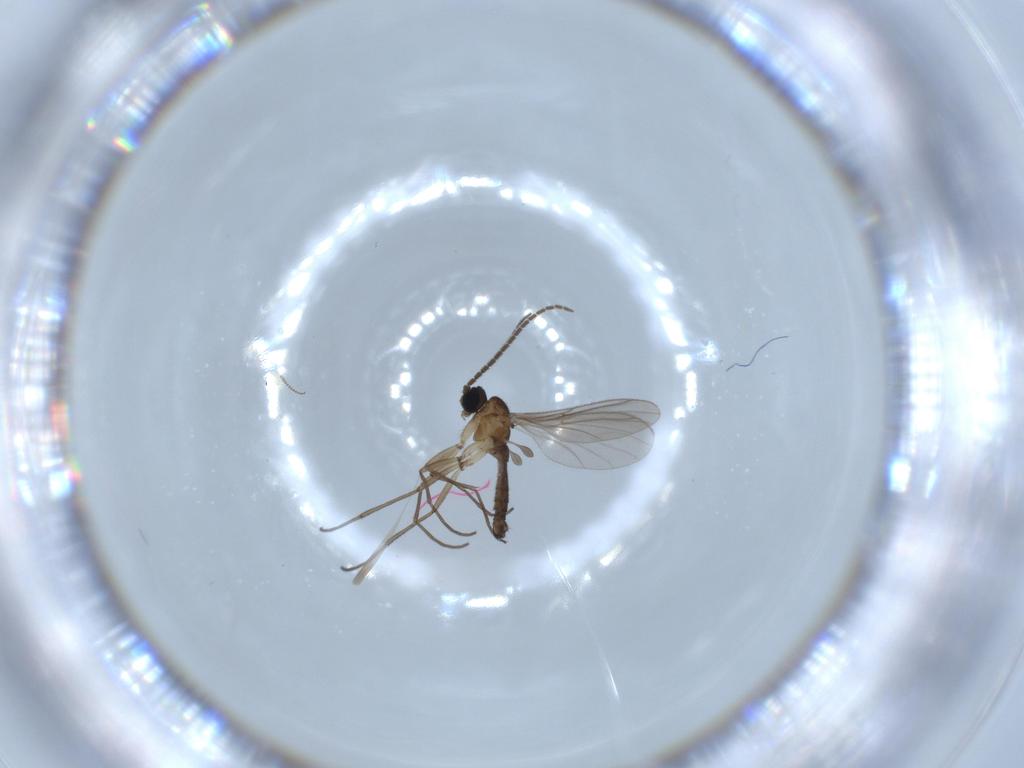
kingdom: Animalia
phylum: Arthropoda
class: Insecta
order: Diptera
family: Sciaridae
